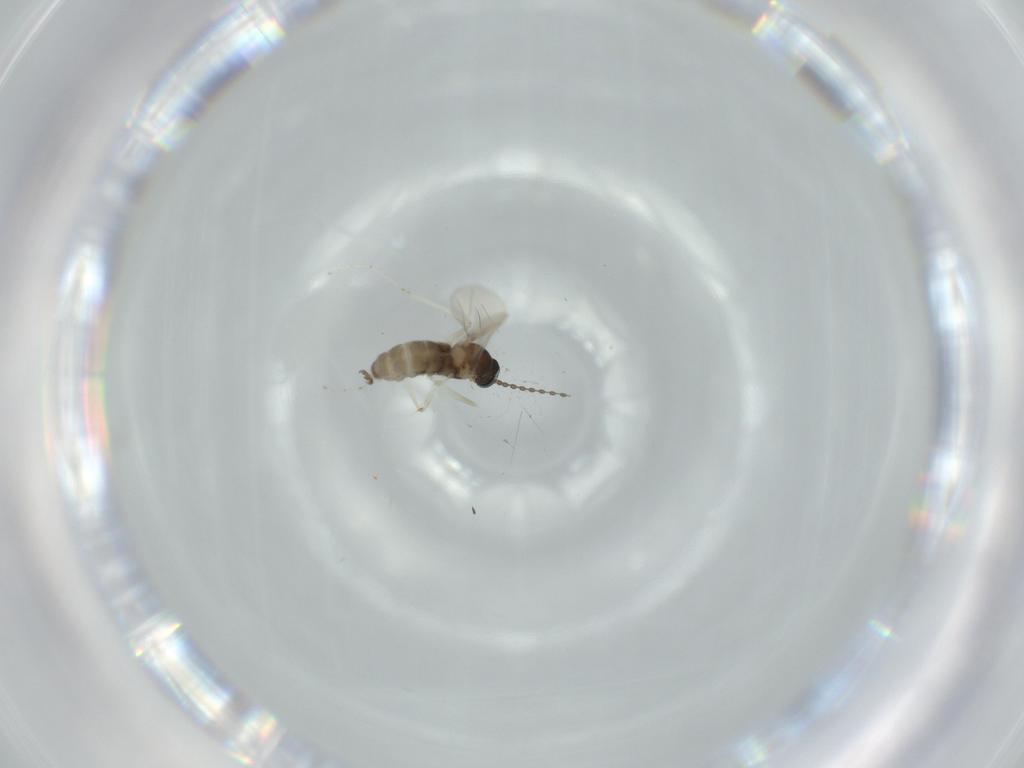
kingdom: Animalia
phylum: Arthropoda
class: Insecta
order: Diptera
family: Cecidomyiidae
